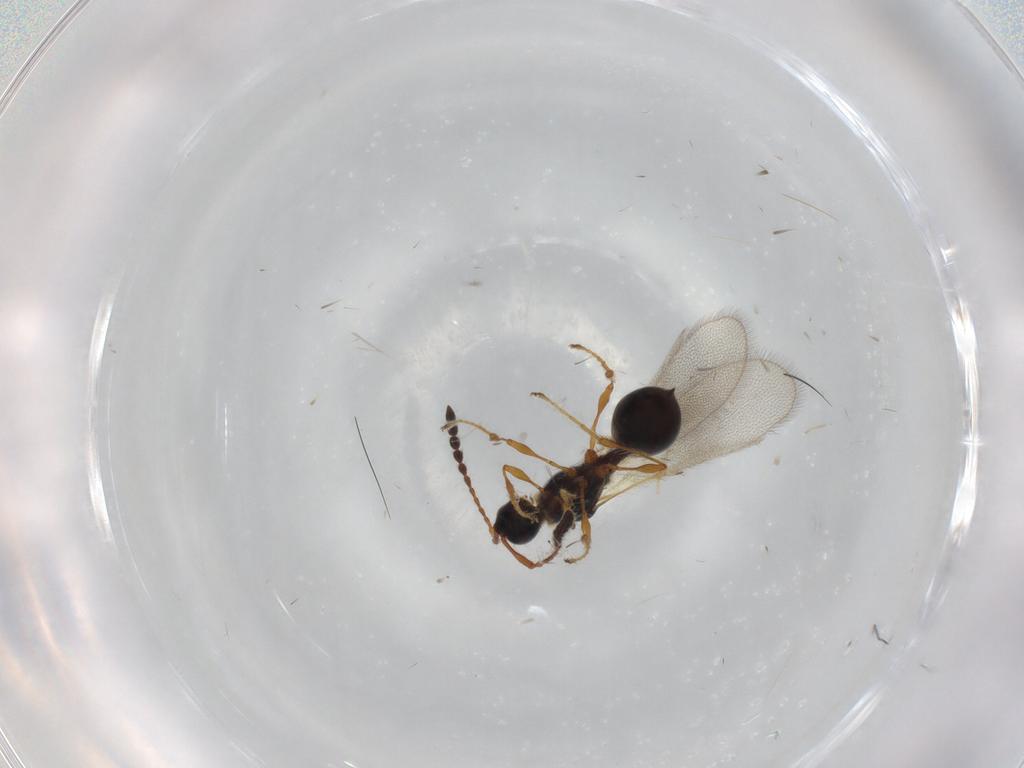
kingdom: Animalia
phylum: Arthropoda
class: Insecta
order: Hymenoptera
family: Diapriidae
